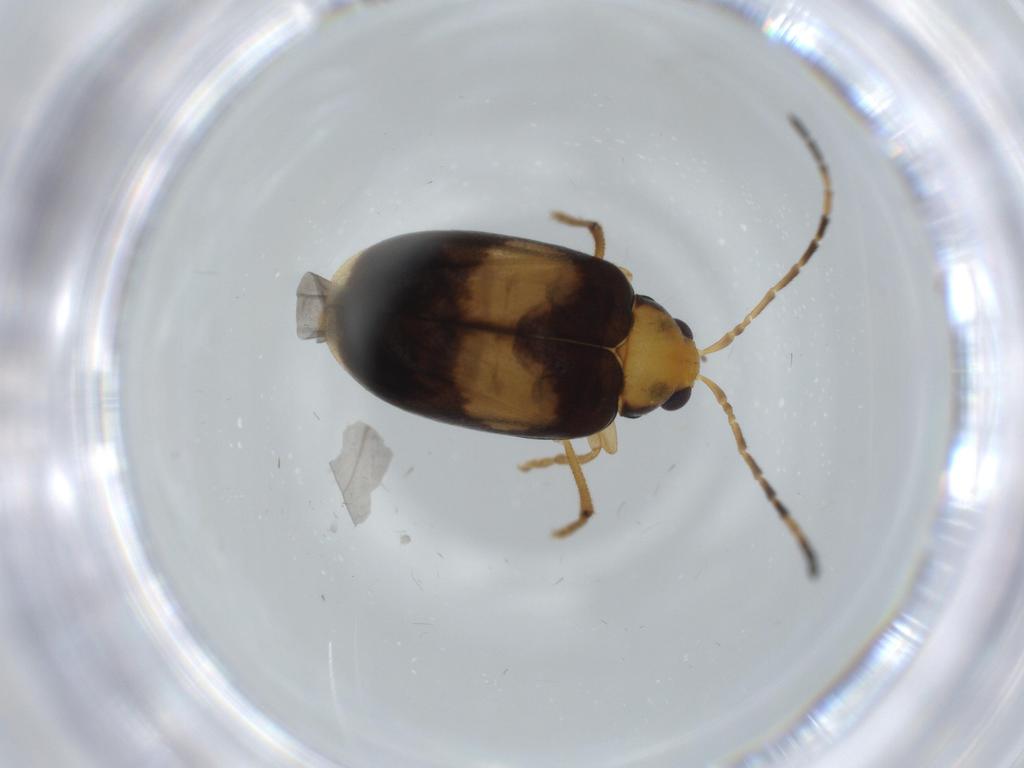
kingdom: Animalia
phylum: Arthropoda
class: Insecta
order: Coleoptera
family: Chrysomelidae
